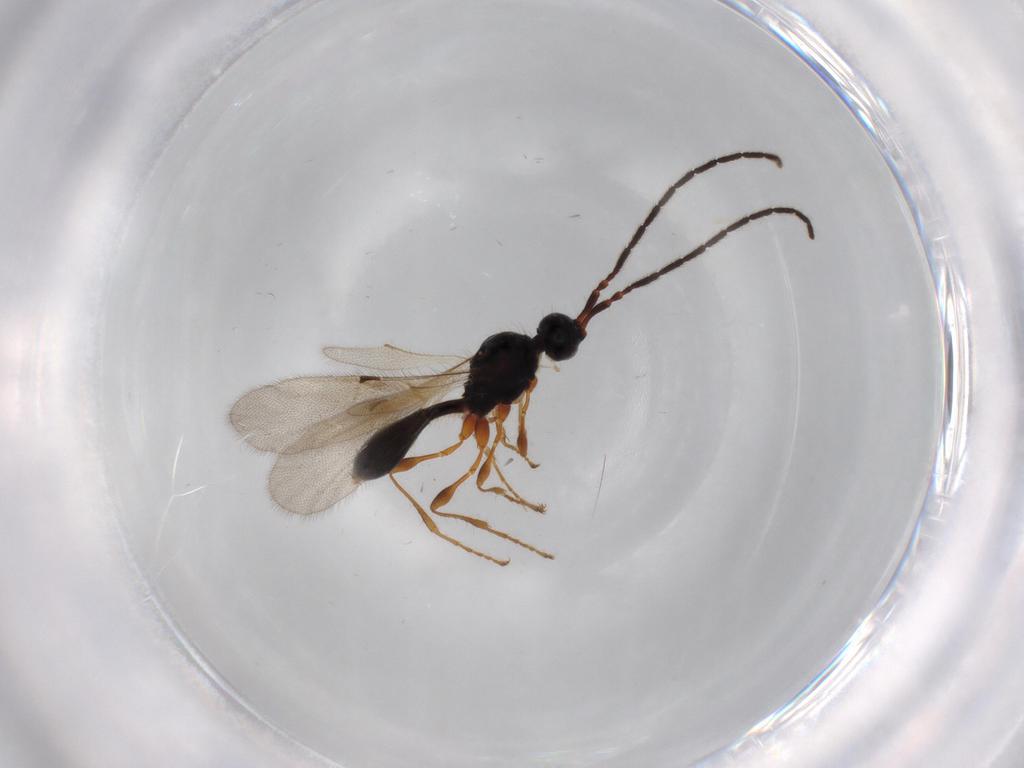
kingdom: Animalia
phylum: Arthropoda
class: Insecta
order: Hymenoptera
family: Diapriidae
